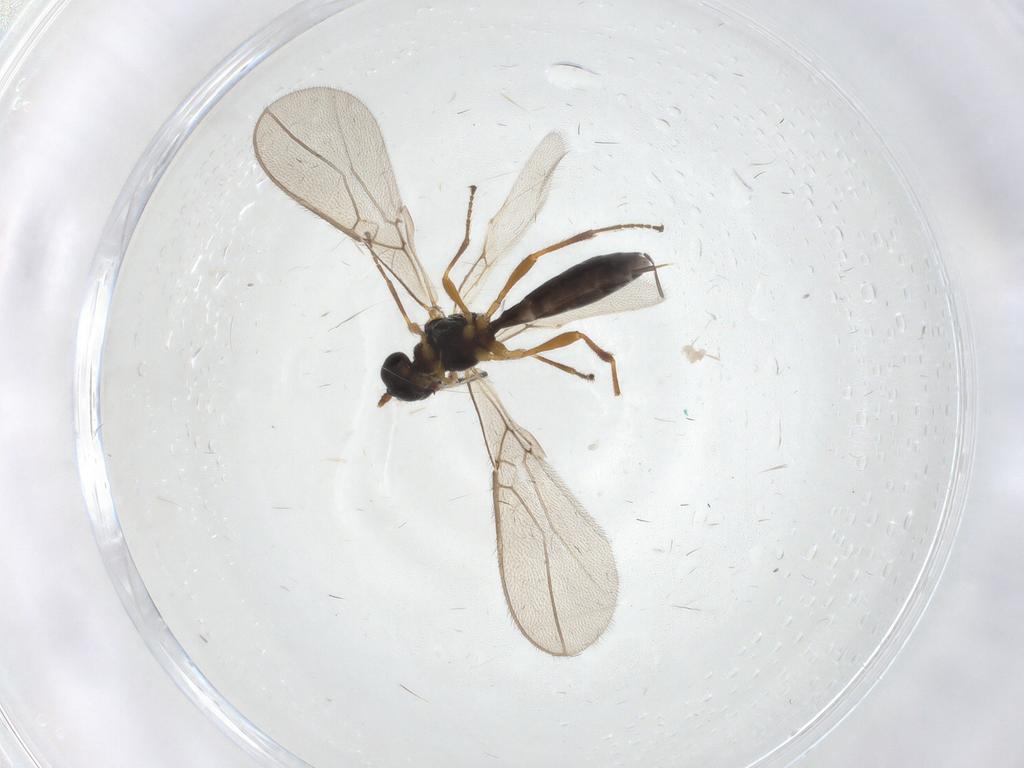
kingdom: Animalia
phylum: Arthropoda
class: Insecta
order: Hymenoptera
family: Braconidae
